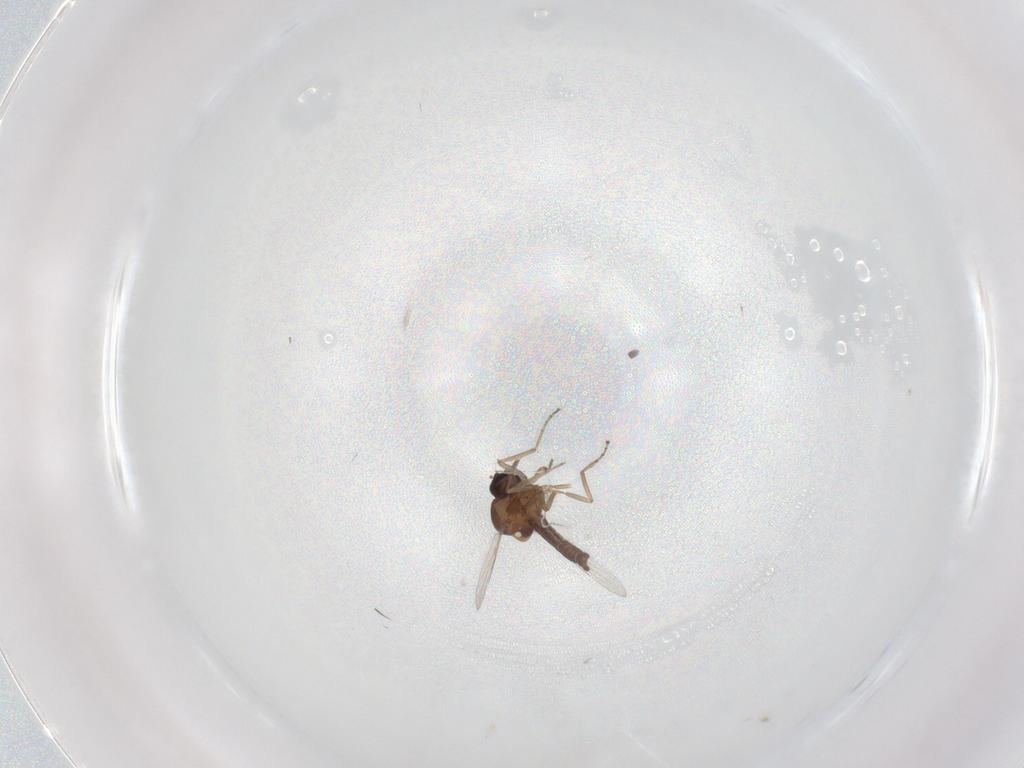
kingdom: Animalia
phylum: Arthropoda
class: Insecta
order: Diptera
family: Ceratopogonidae
